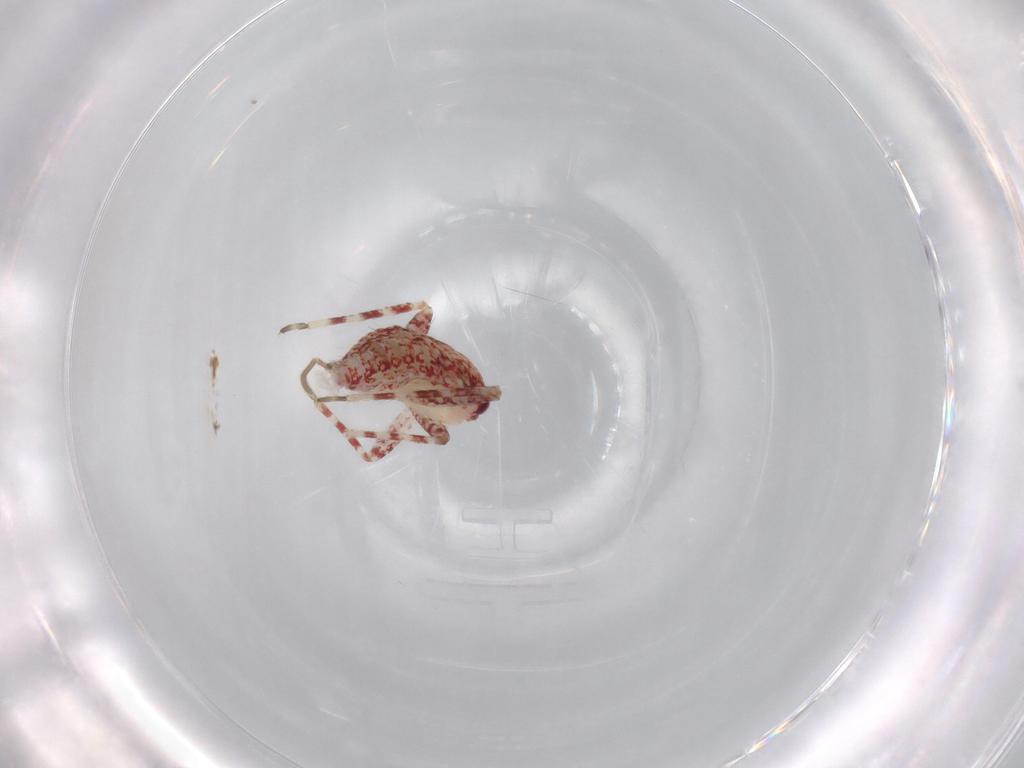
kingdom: Animalia
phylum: Arthropoda
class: Insecta
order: Hemiptera
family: Miridae
